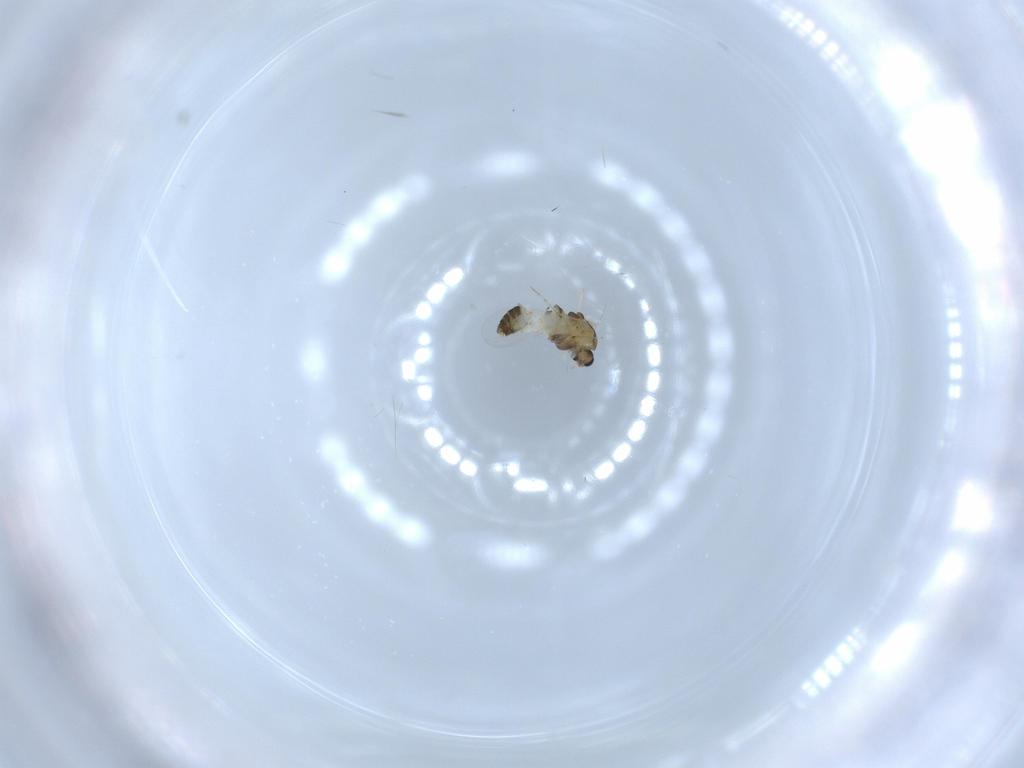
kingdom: Animalia
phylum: Arthropoda
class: Insecta
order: Diptera
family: Chironomidae
